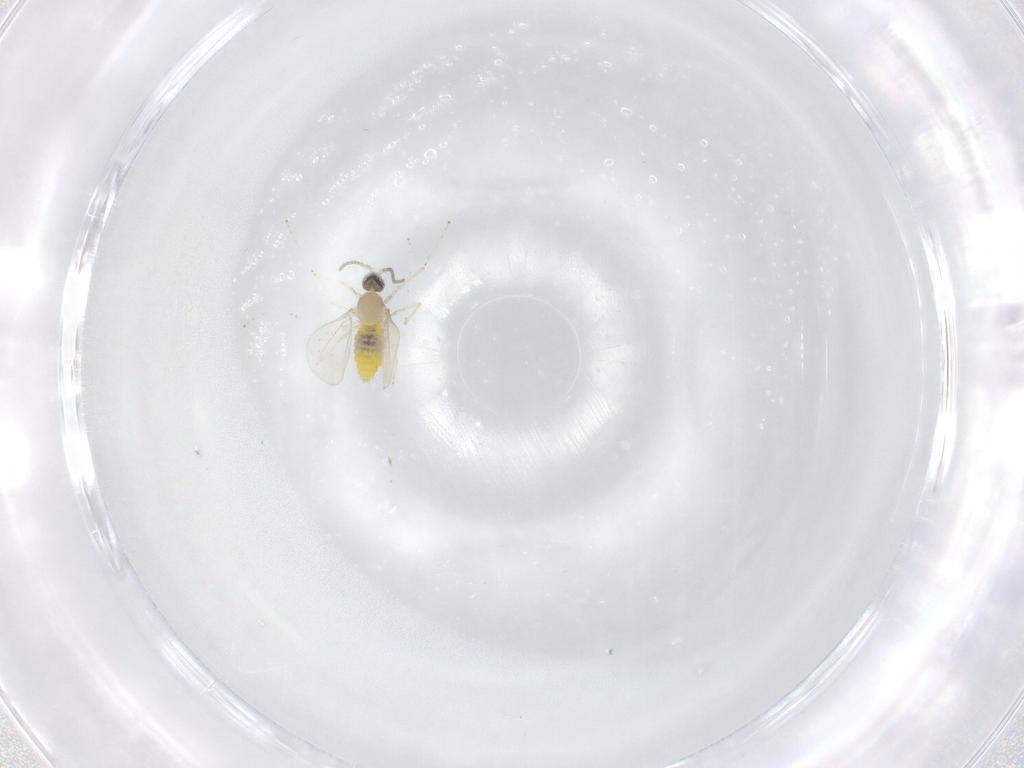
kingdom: Animalia
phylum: Arthropoda
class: Insecta
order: Diptera
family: Cecidomyiidae
